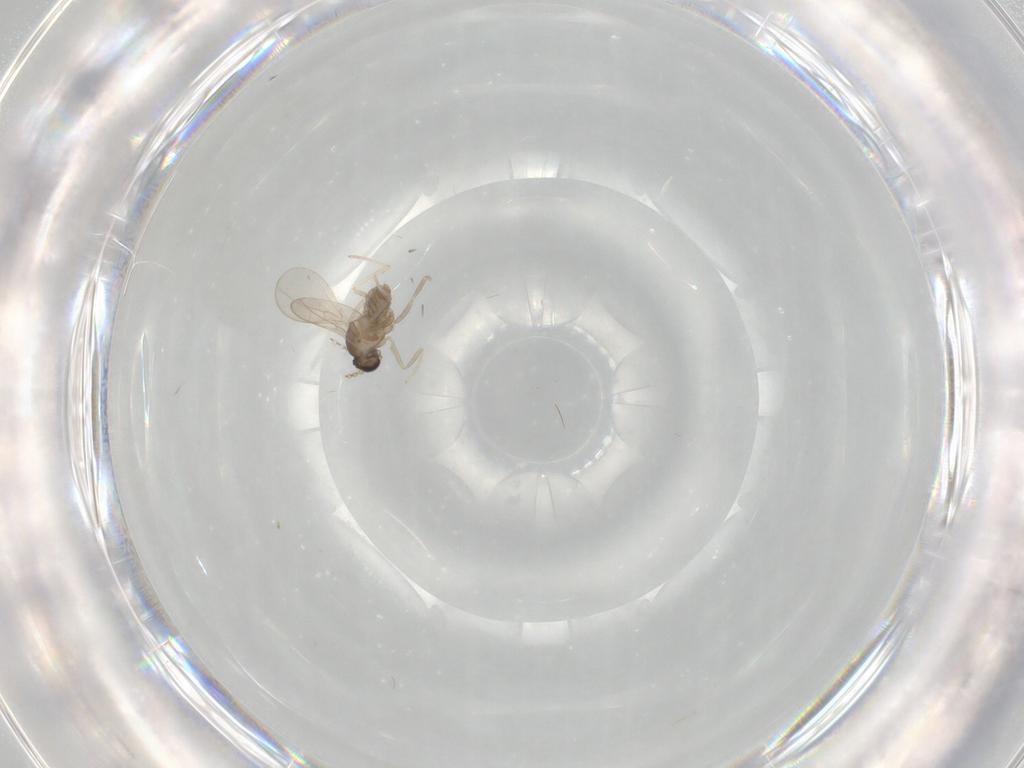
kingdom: Animalia
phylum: Arthropoda
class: Insecta
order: Diptera
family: Cecidomyiidae
